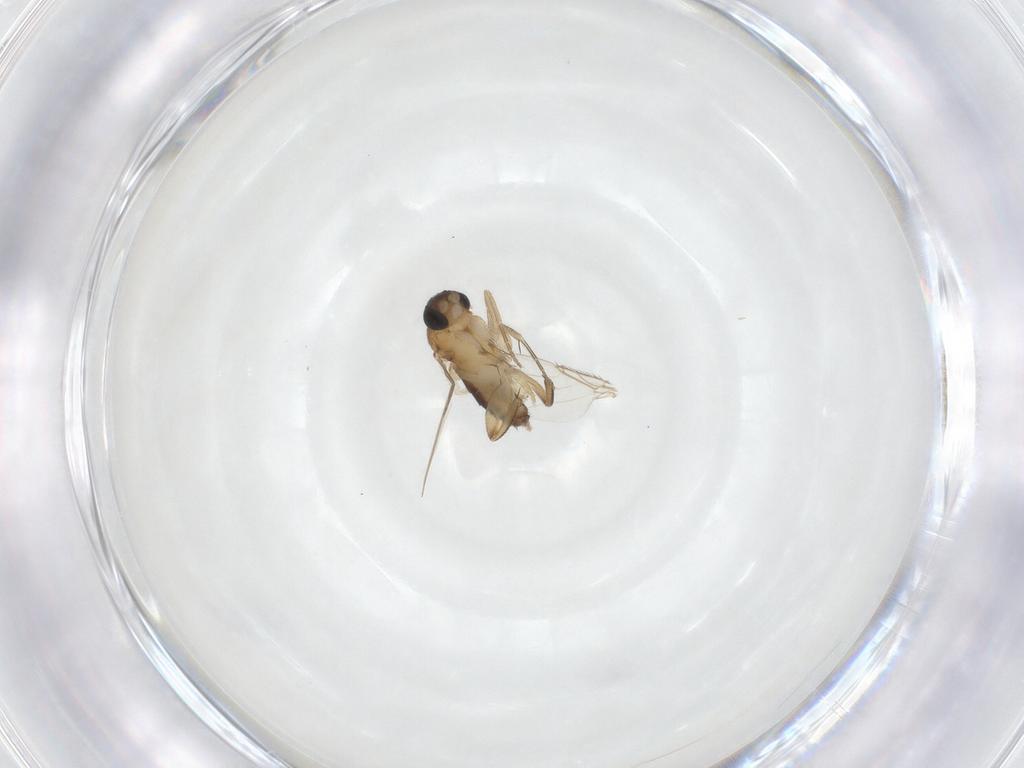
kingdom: Animalia
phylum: Arthropoda
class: Insecta
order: Diptera
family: Phoridae
